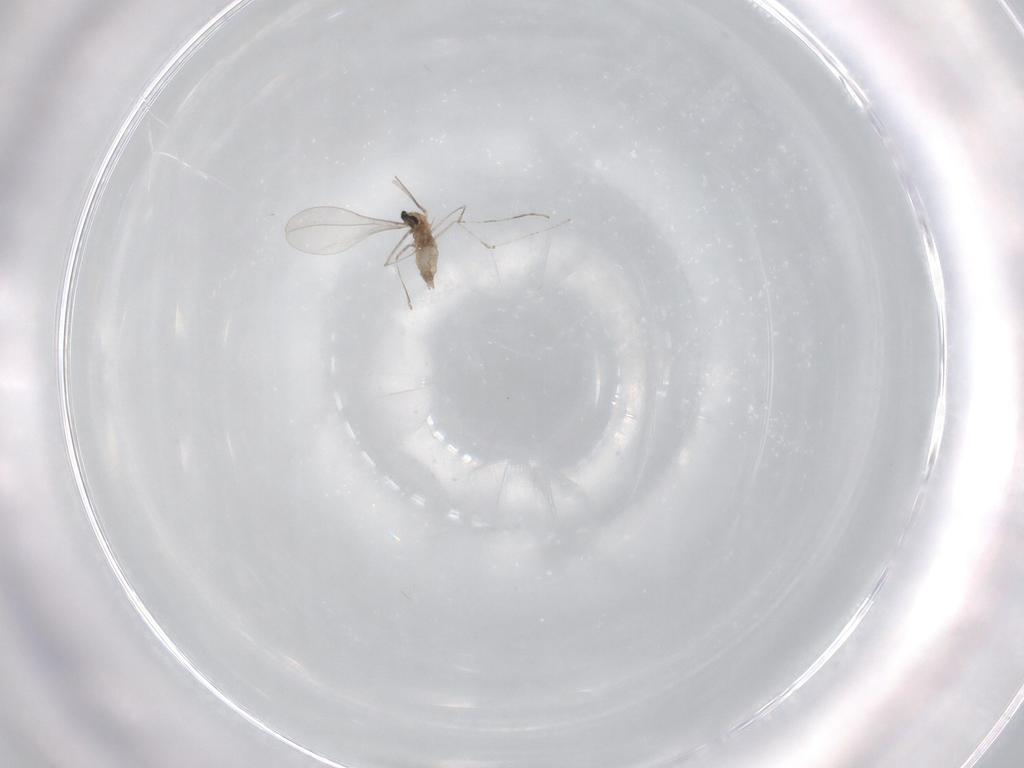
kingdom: Animalia
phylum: Arthropoda
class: Insecta
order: Diptera
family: Cecidomyiidae
